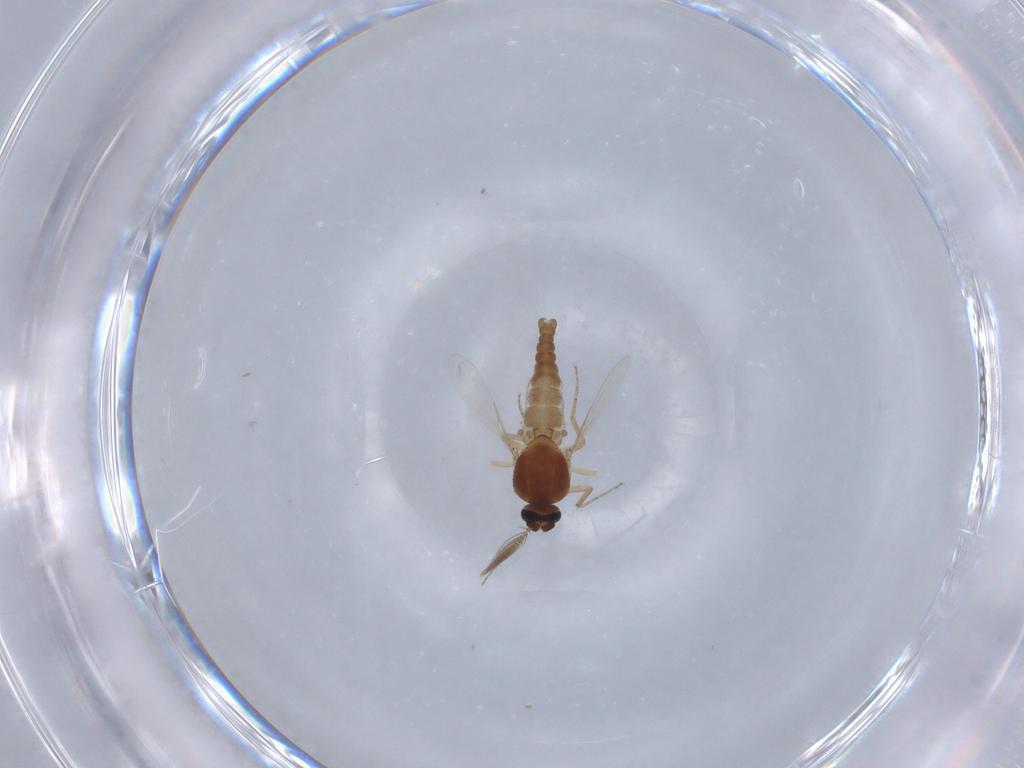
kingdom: Animalia
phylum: Arthropoda
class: Insecta
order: Diptera
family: Ceratopogonidae
